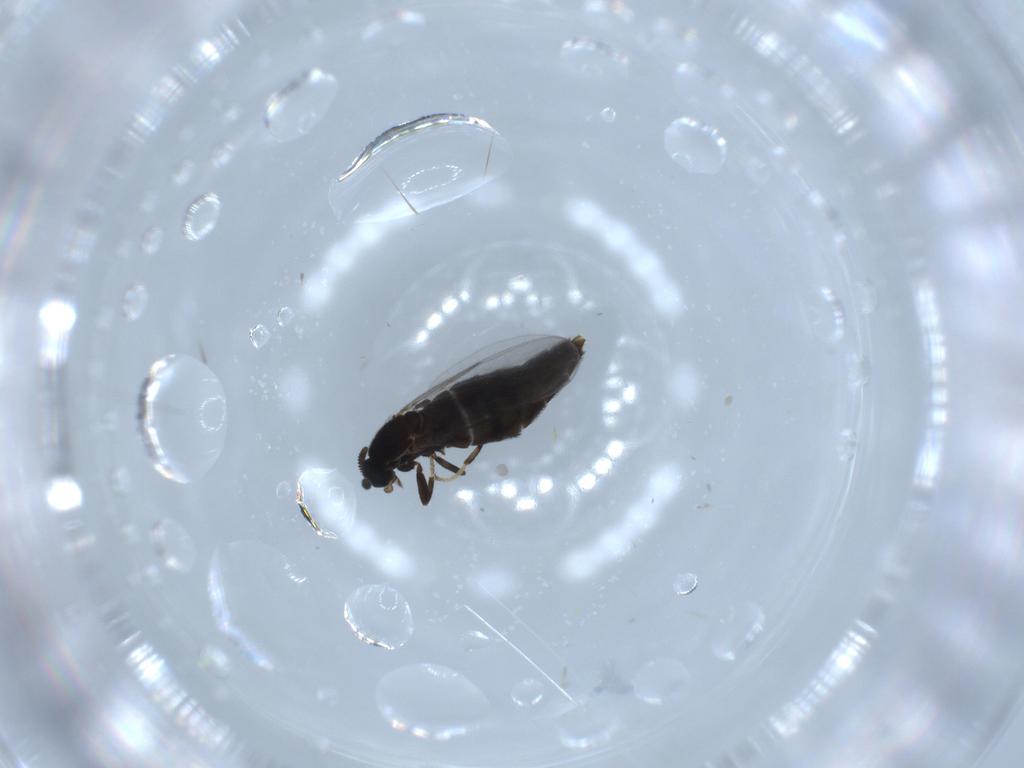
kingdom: Animalia
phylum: Arthropoda
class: Insecta
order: Diptera
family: Scatopsidae
